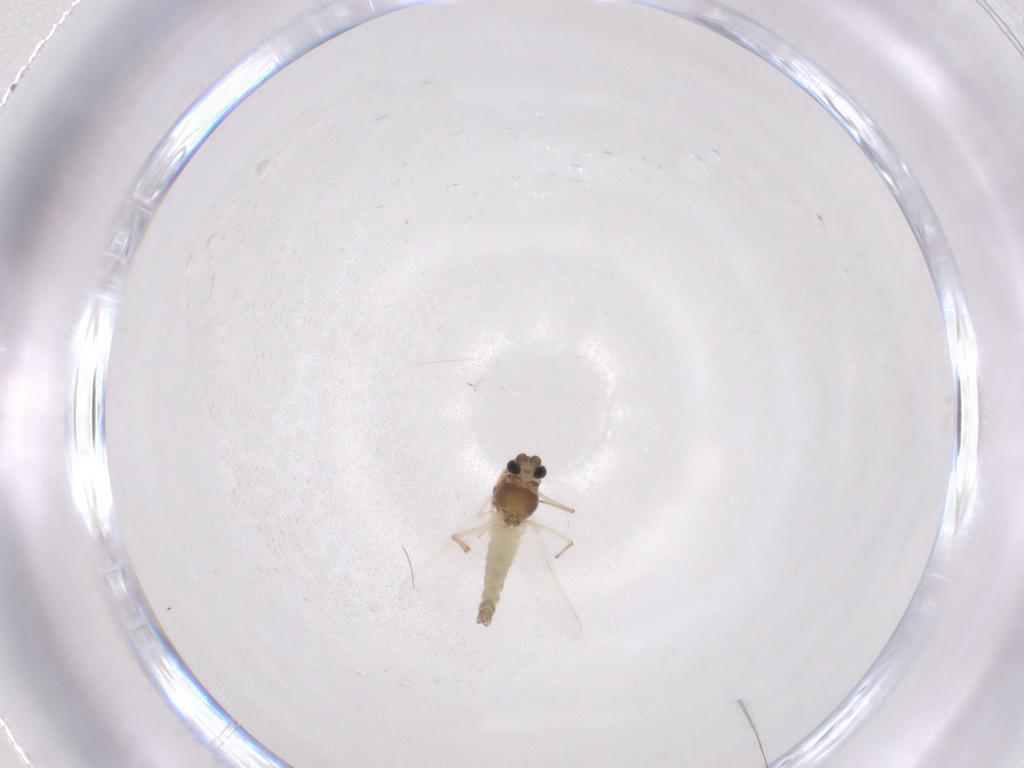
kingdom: Animalia
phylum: Arthropoda
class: Insecta
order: Diptera
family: Chironomidae
